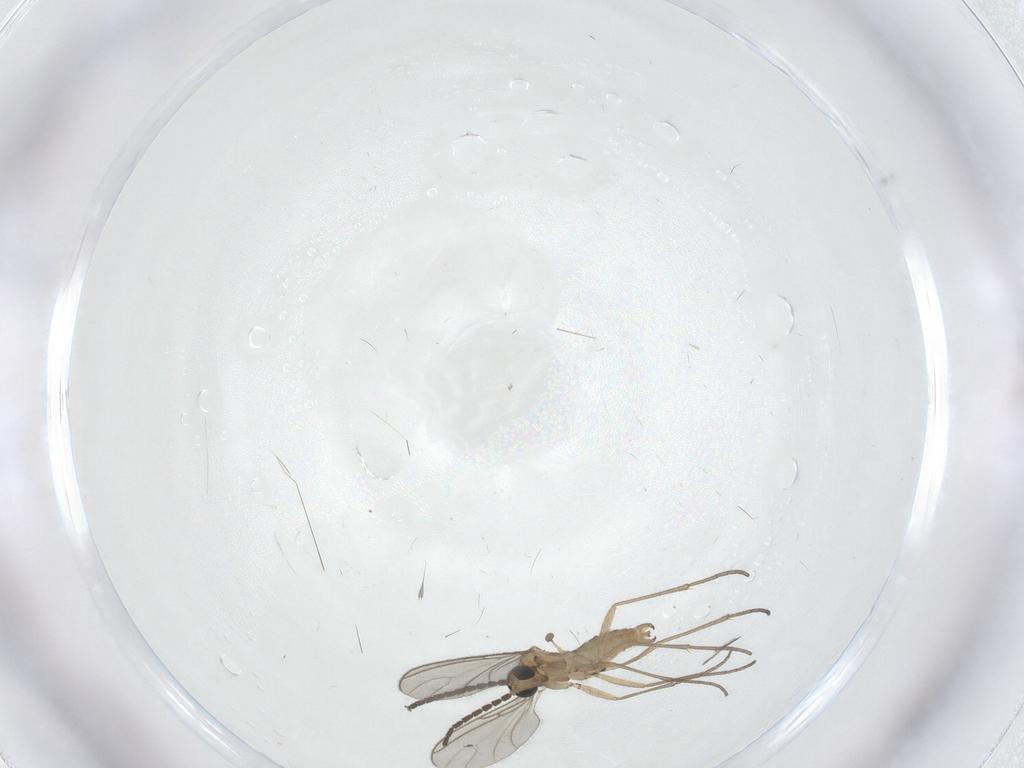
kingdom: Animalia
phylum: Arthropoda
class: Insecta
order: Diptera
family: Sciaridae
